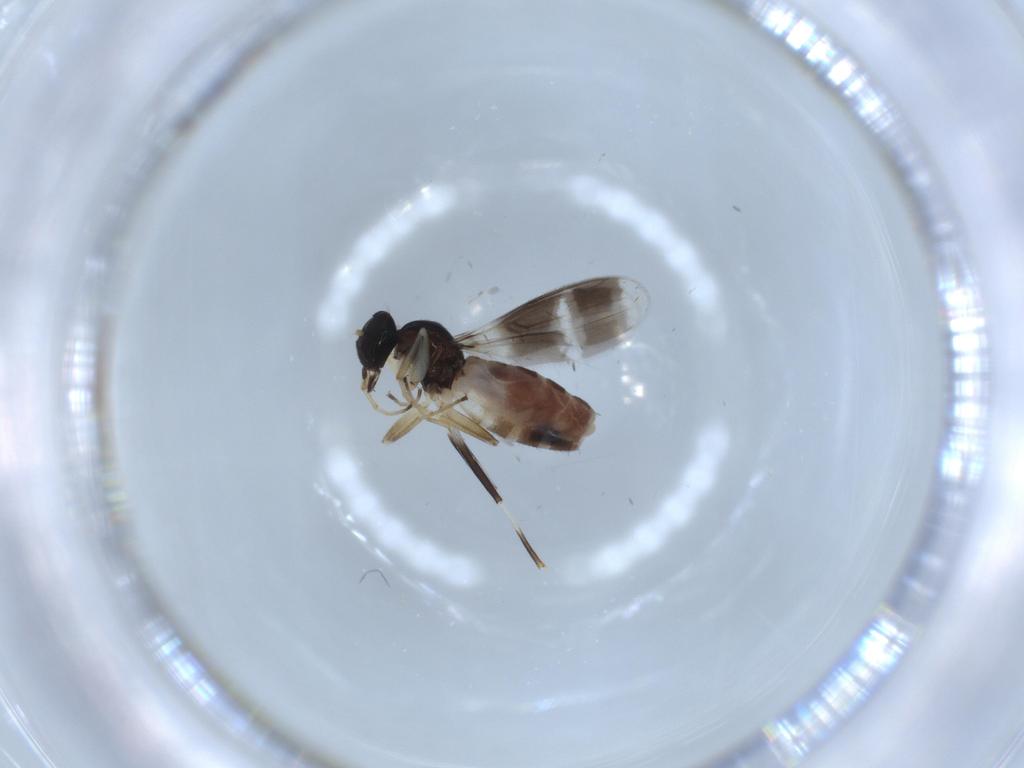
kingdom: Animalia
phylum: Arthropoda
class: Insecta
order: Diptera
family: Hybotidae
